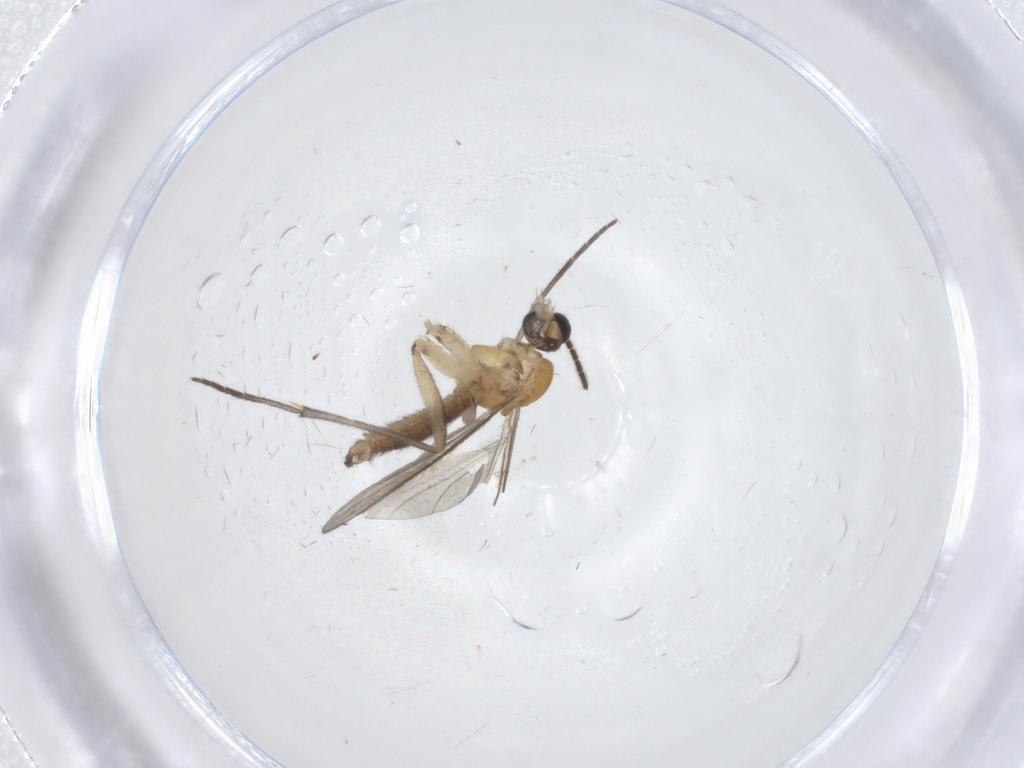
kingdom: Animalia
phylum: Arthropoda
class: Insecta
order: Diptera
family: Sciaridae
